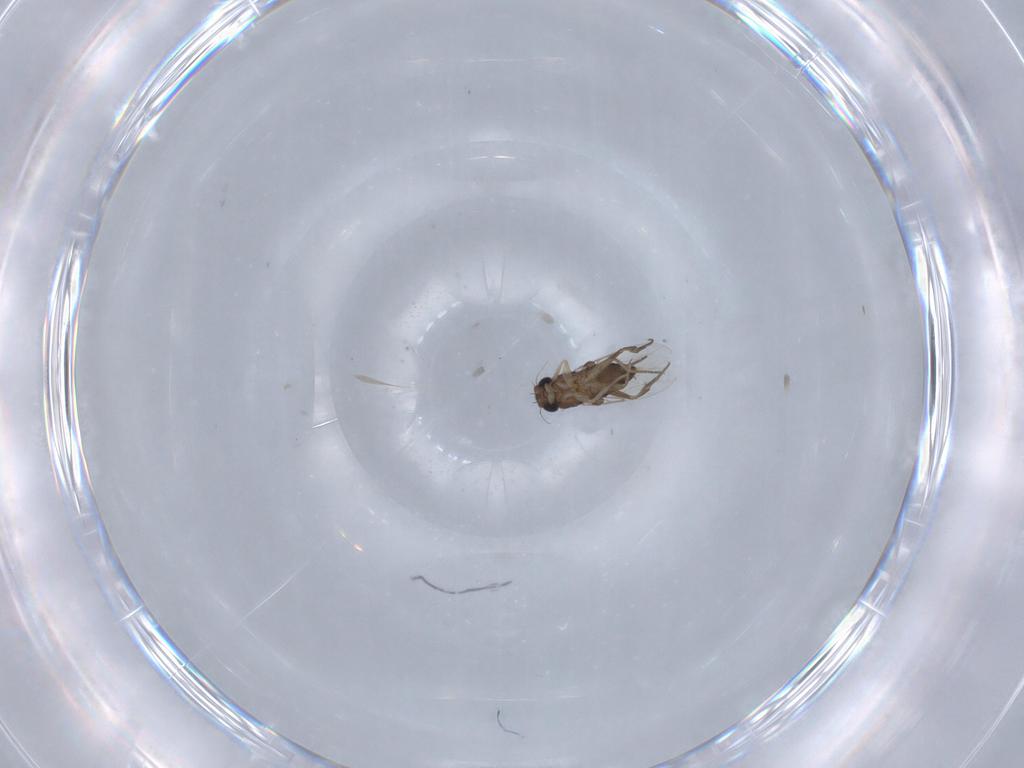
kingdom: Animalia
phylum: Arthropoda
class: Insecta
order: Diptera
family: Phoridae
